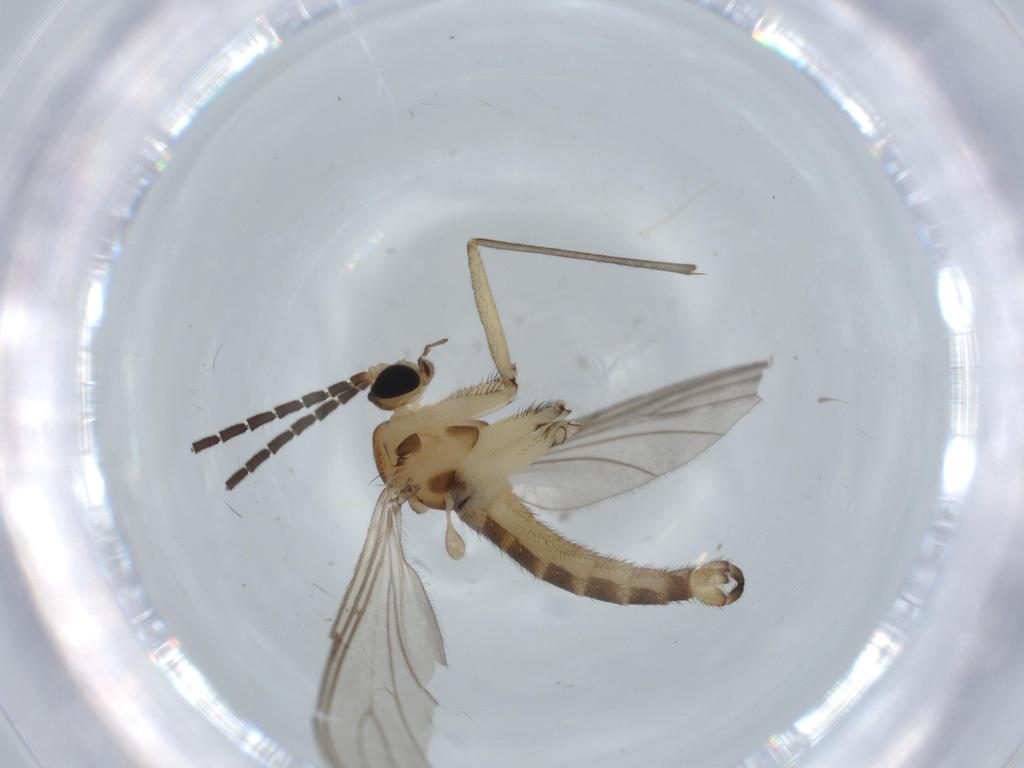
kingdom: Animalia
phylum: Arthropoda
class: Insecta
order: Diptera
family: Sciaridae
